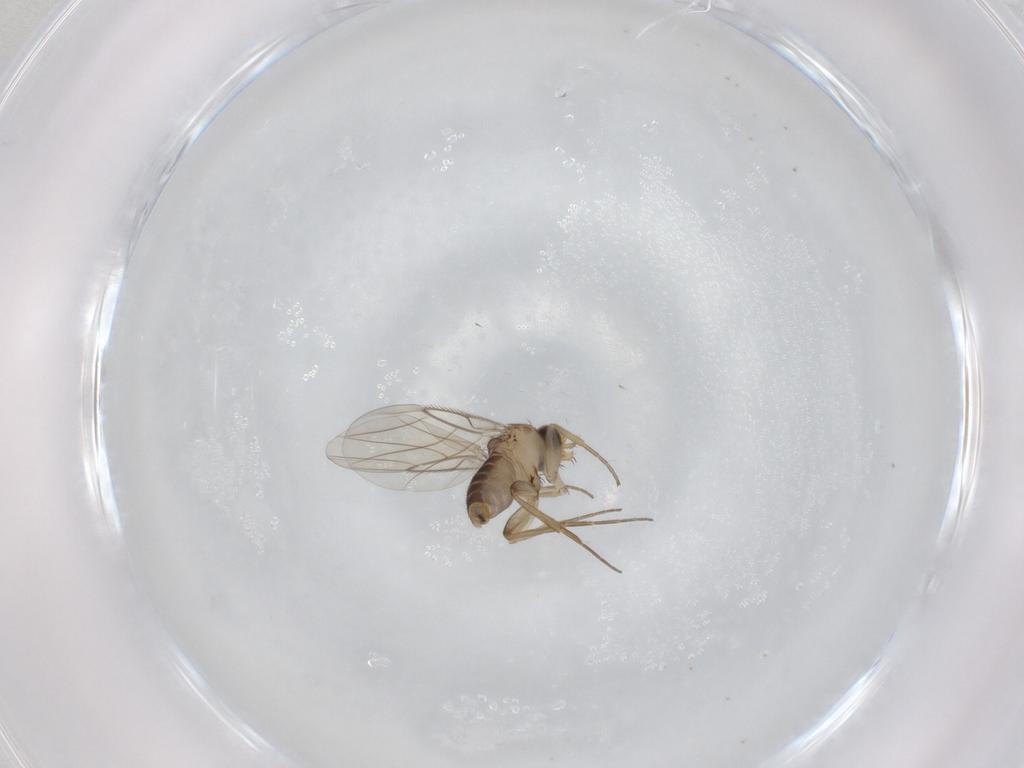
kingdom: Animalia
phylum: Arthropoda
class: Insecta
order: Diptera
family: Phoridae
